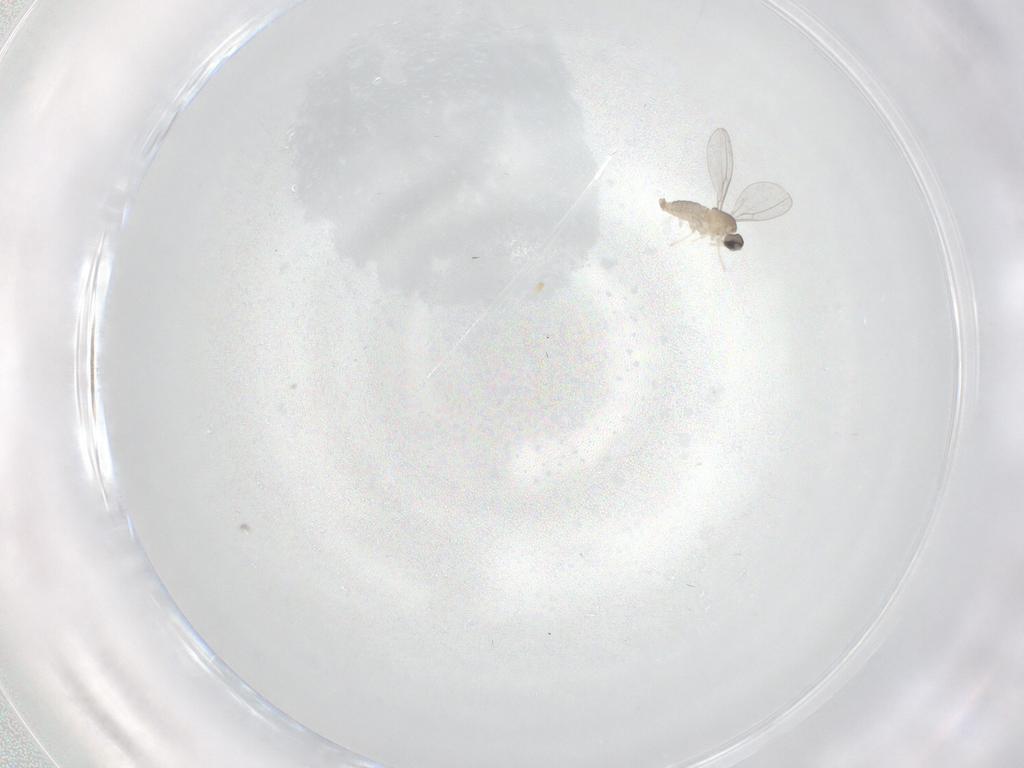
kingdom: Animalia
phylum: Arthropoda
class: Insecta
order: Diptera
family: Cecidomyiidae
